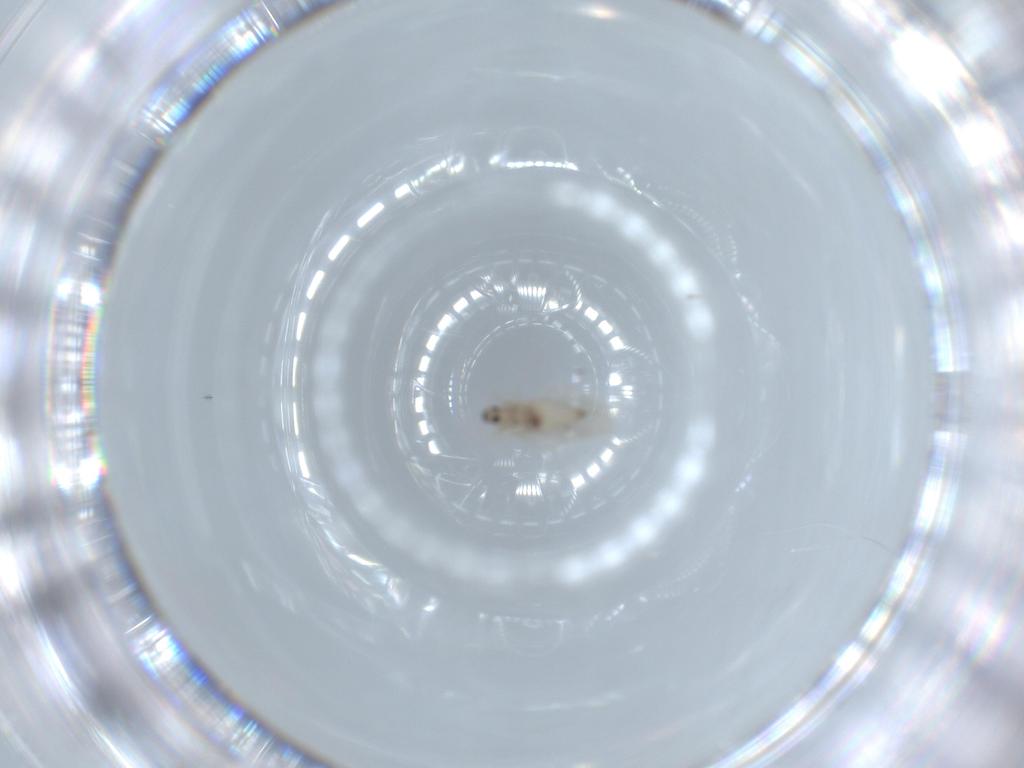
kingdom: Animalia
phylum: Arthropoda
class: Insecta
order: Diptera
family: Cecidomyiidae
